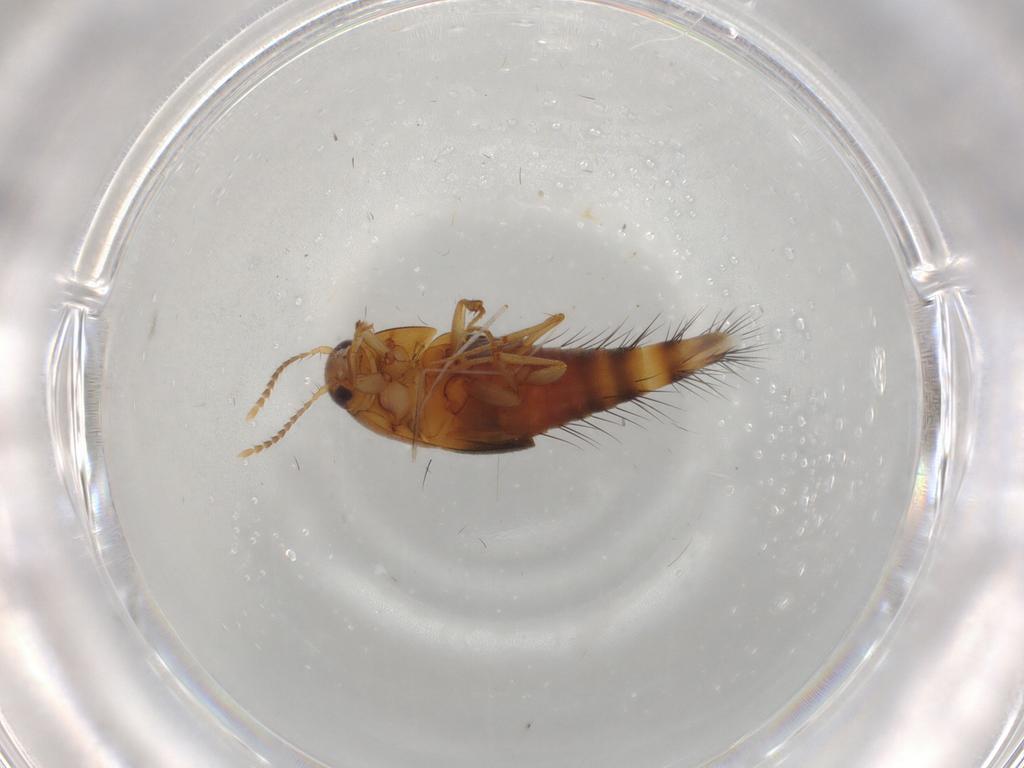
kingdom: Animalia
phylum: Arthropoda
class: Insecta
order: Coleoptera
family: Staphylinidae
